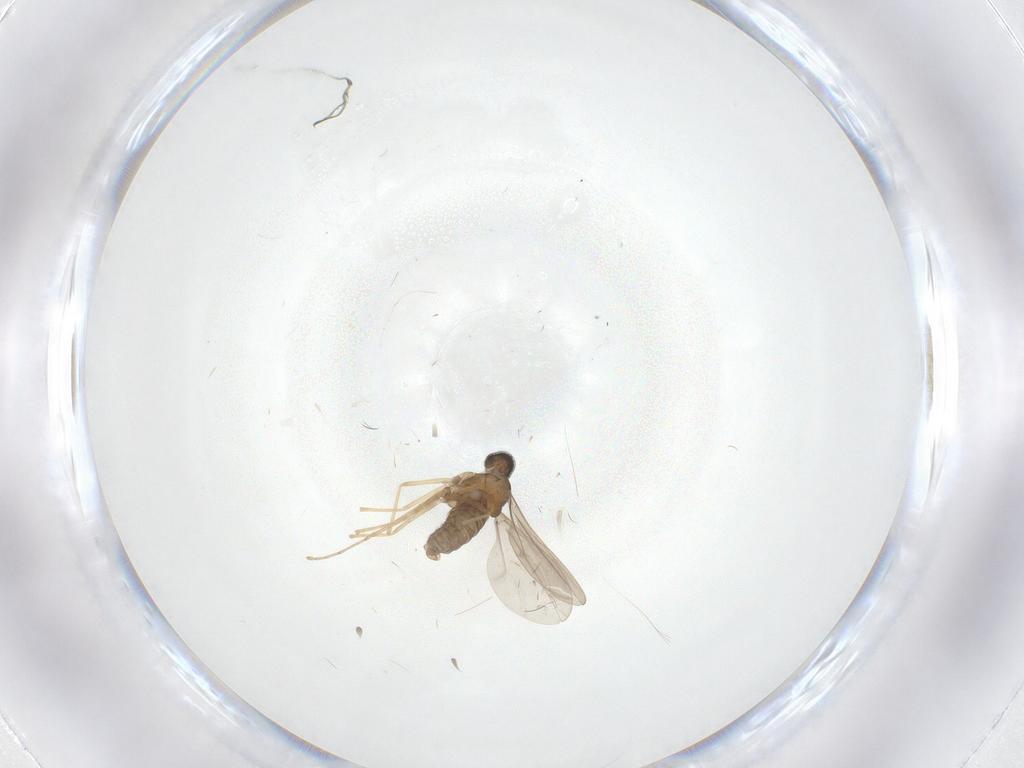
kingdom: Animalia
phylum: Arthropoda
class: Insecta
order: Diptera
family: Cecidomyiidae
